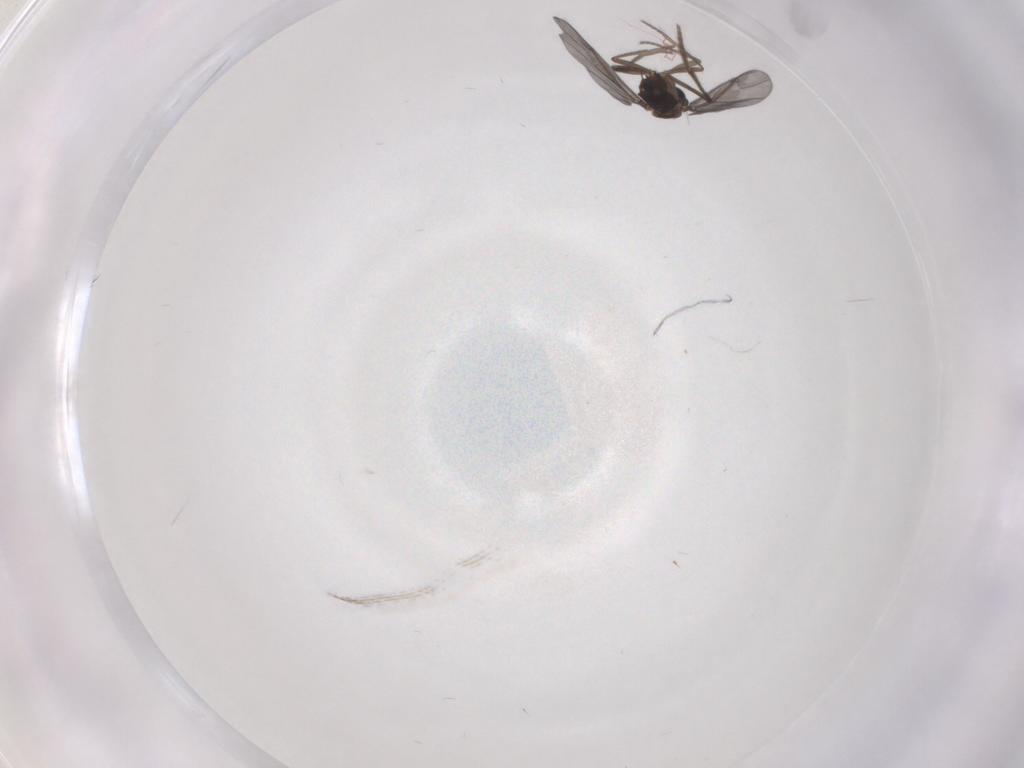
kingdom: Animalia
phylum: Arthropoda
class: Insecta
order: Diptera
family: Phoridae
